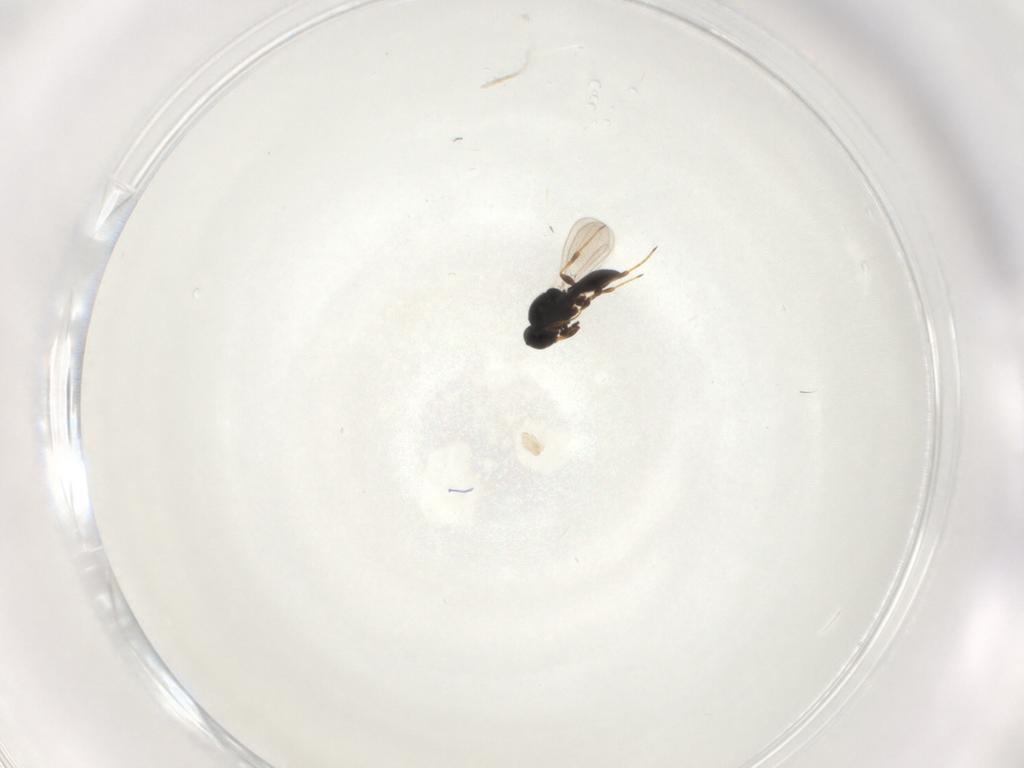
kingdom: Animalia
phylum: Arthropoda
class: Insecta
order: Hymenoptera
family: Platygastridae
